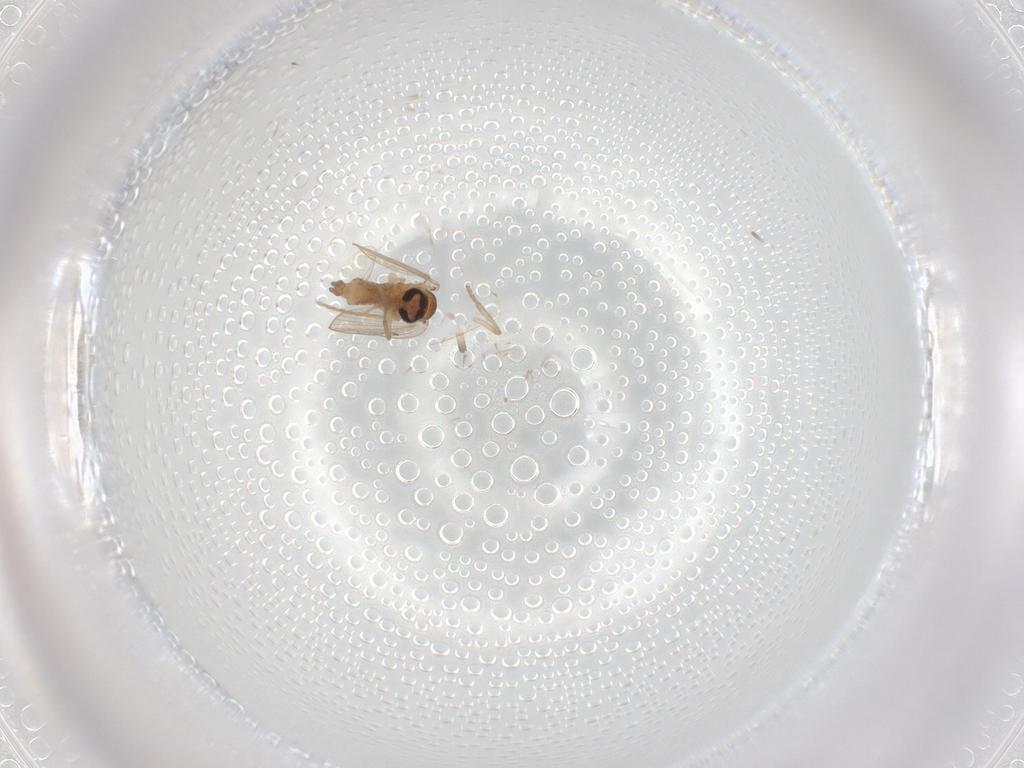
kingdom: Animalia
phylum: Arthropoda
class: Insecta
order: Diptera
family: Psychodidae
